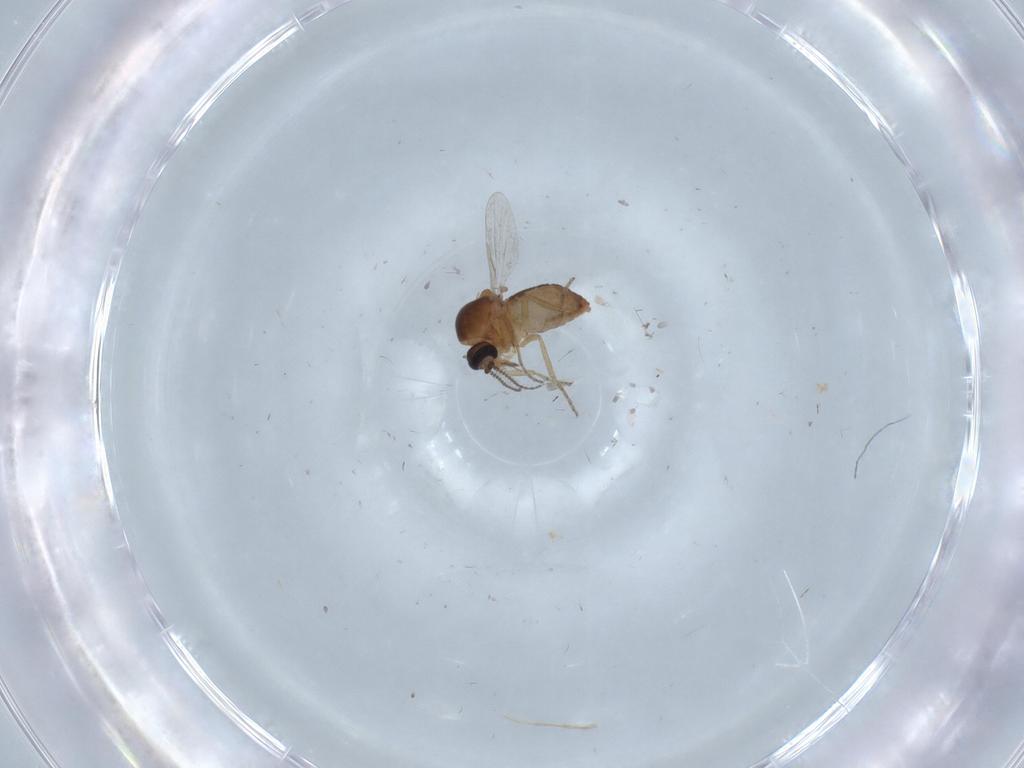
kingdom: Animalia
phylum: Arthropoda
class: Insecta
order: Diptera
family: Ceratopogonidae
